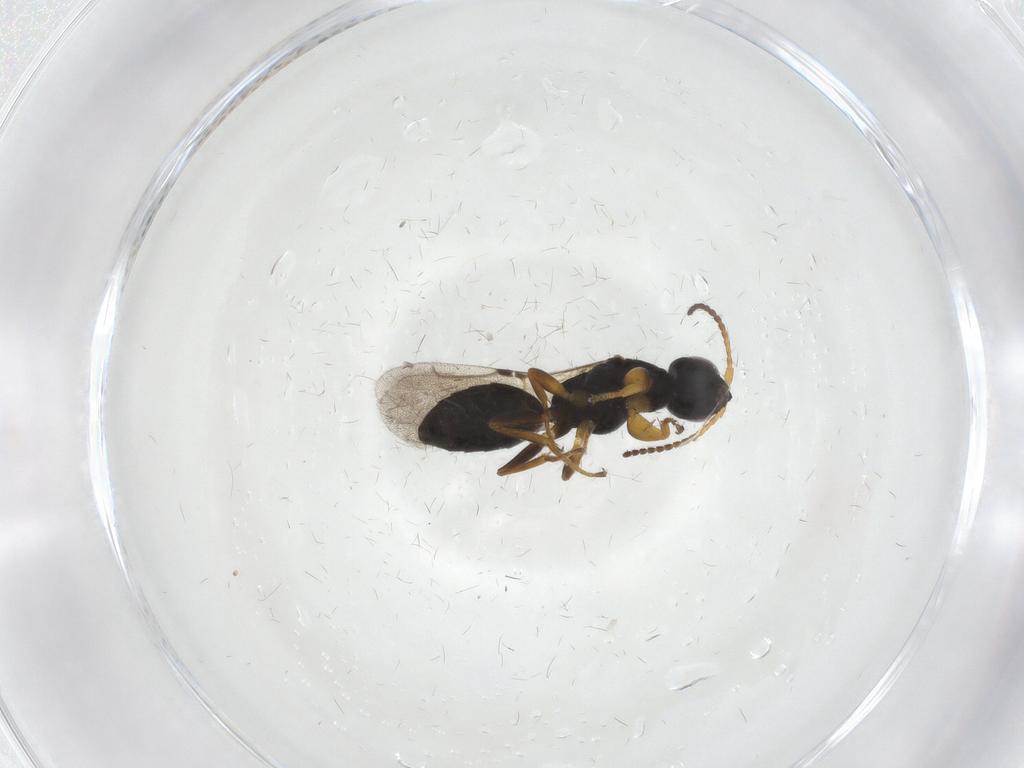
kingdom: Animalia
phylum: Arthropoda
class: Insecta
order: Hymenoptera
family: Bethylidae
